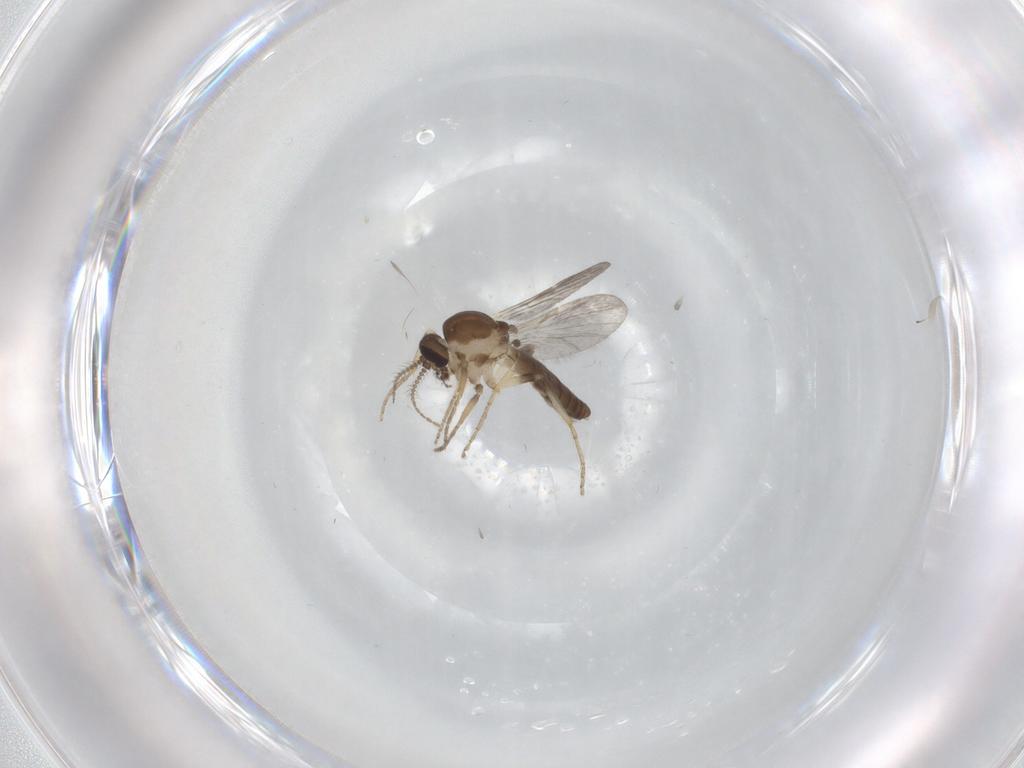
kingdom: Animalia
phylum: Arthropoda
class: Insecta
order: Diptera
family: Ceratopogonidae
